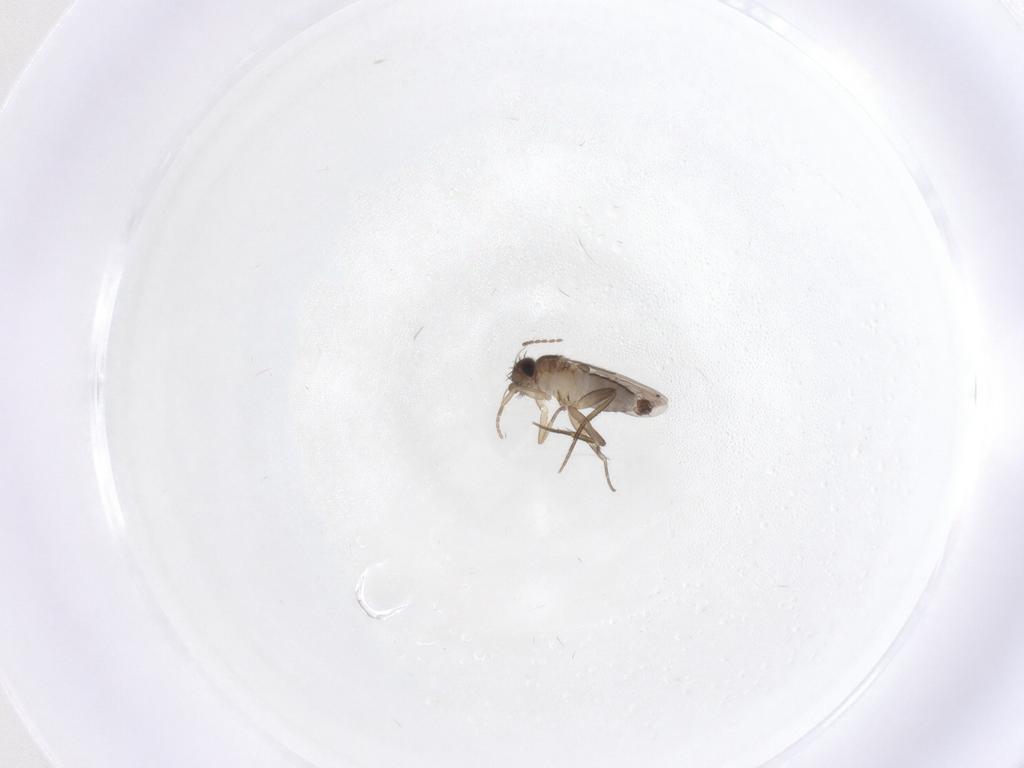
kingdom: Animalia
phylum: Arthropoda
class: Insecta
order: Diptera
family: Phoridae
